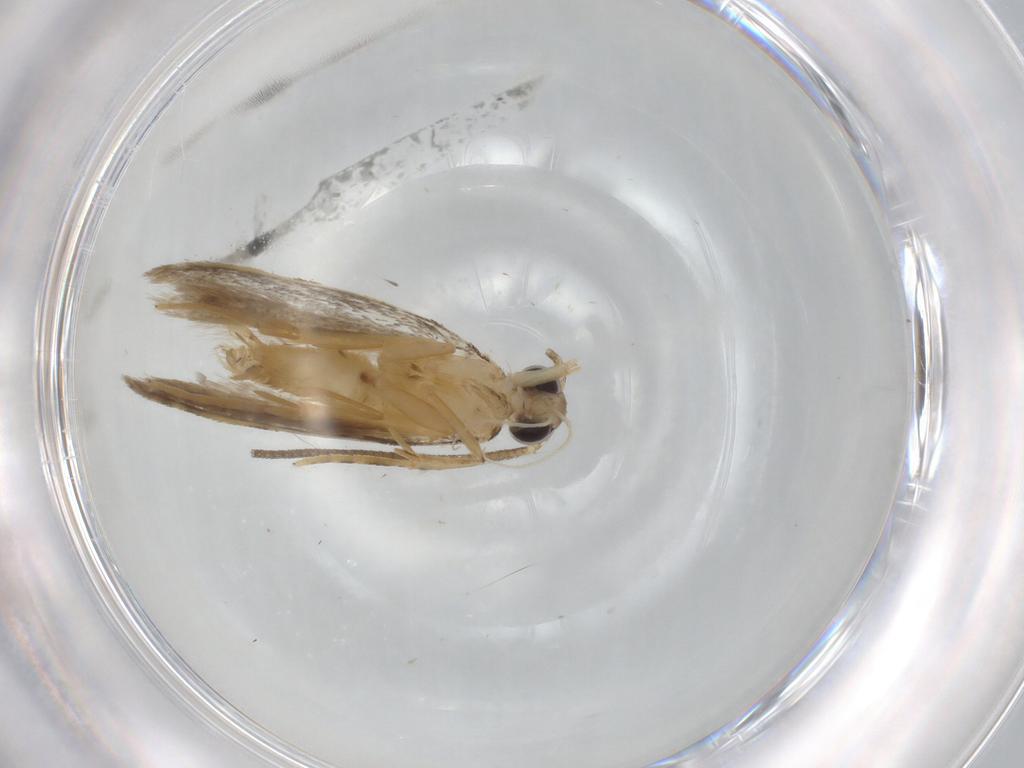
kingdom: Animalia
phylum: Arthropoda
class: Insecta
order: Lepidoptera
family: Autostichidae
